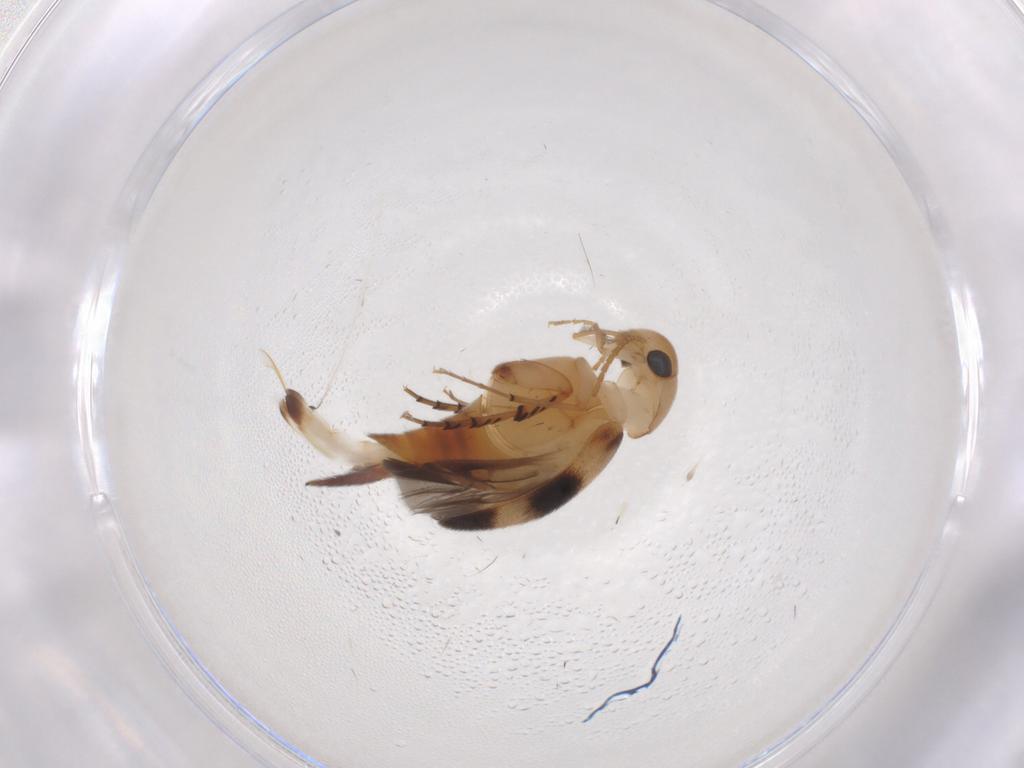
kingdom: Animalia
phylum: Arthropoda
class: Insecta
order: Coleoptera
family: Mordellidae
